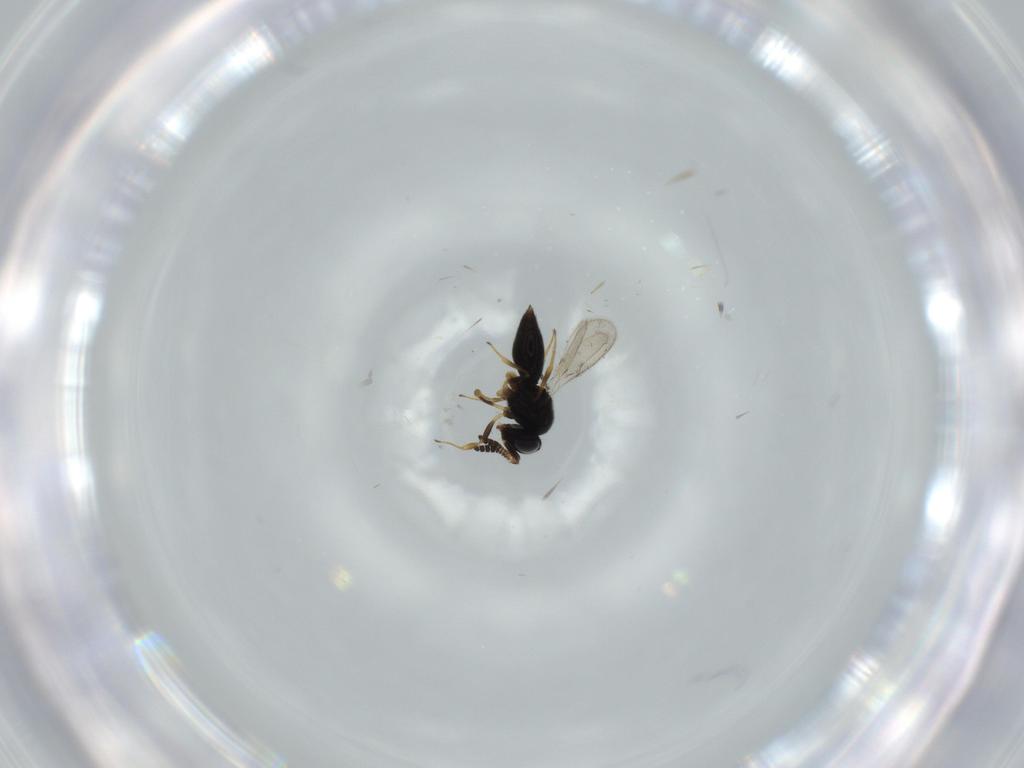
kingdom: Animalia
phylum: Arthropoda
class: Insecta
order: Hymenoptera
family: Scelionidae
